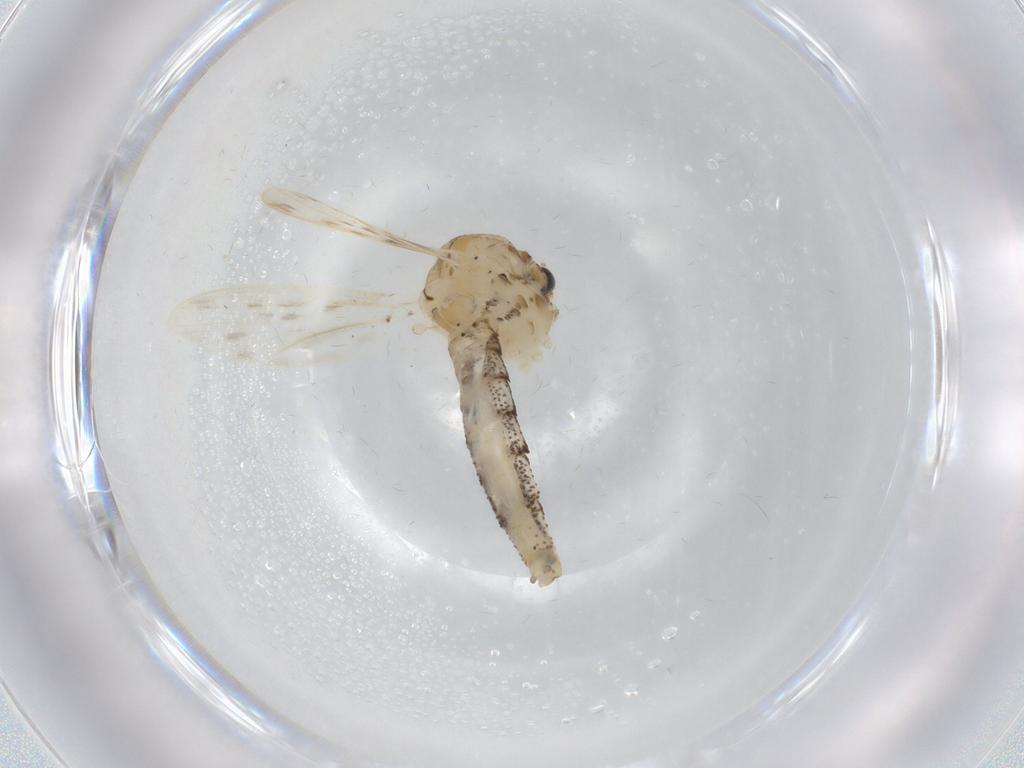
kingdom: Animalia
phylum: Arthropoda
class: Insecta
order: Diptera
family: Chaoboridae
